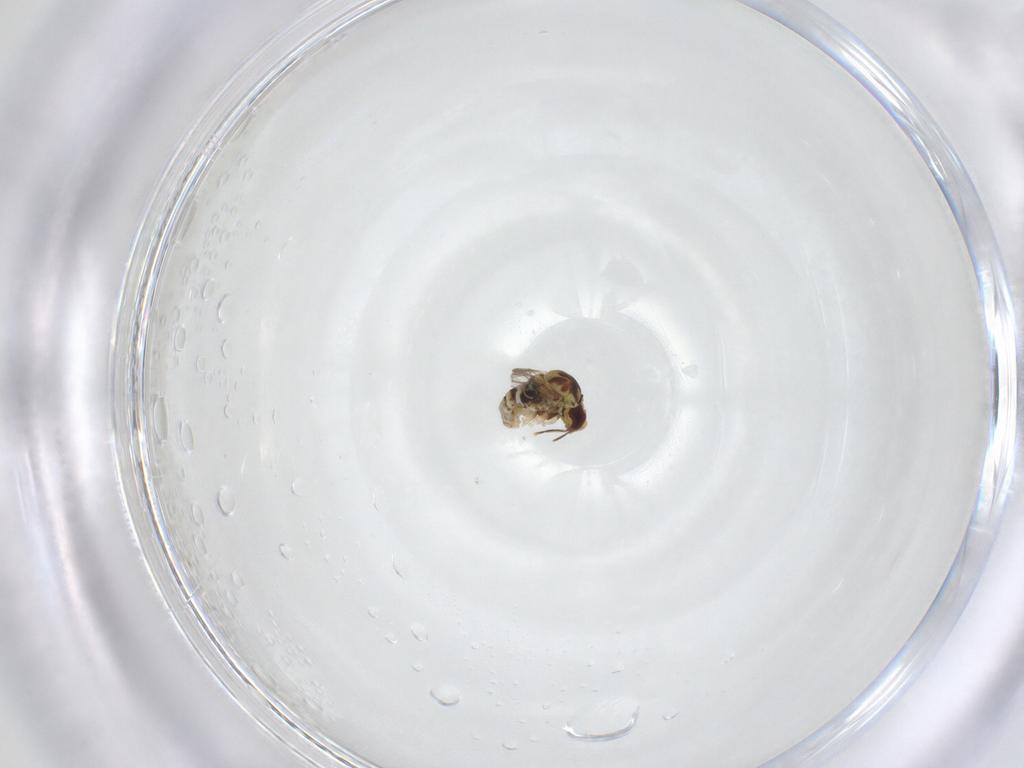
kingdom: Animalia
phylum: Arthropoda
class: Insecta
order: Diptera
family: Bombyliidae
